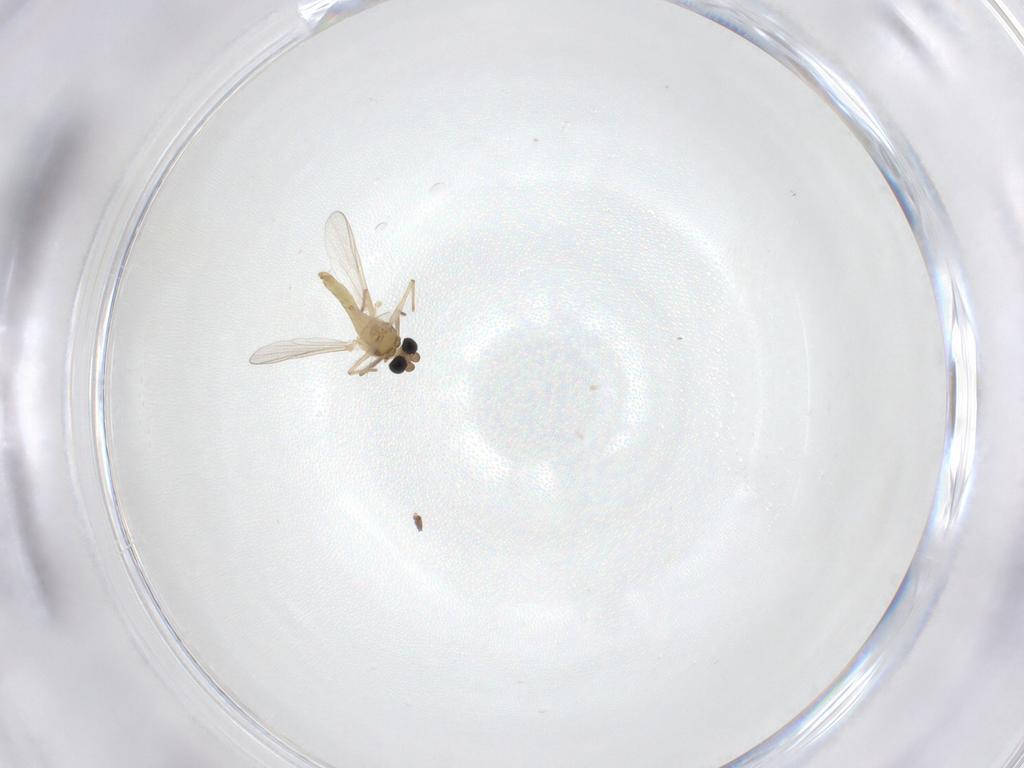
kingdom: Animalia
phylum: Arthropoda
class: Insecta
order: Diptera
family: Chironomidae
